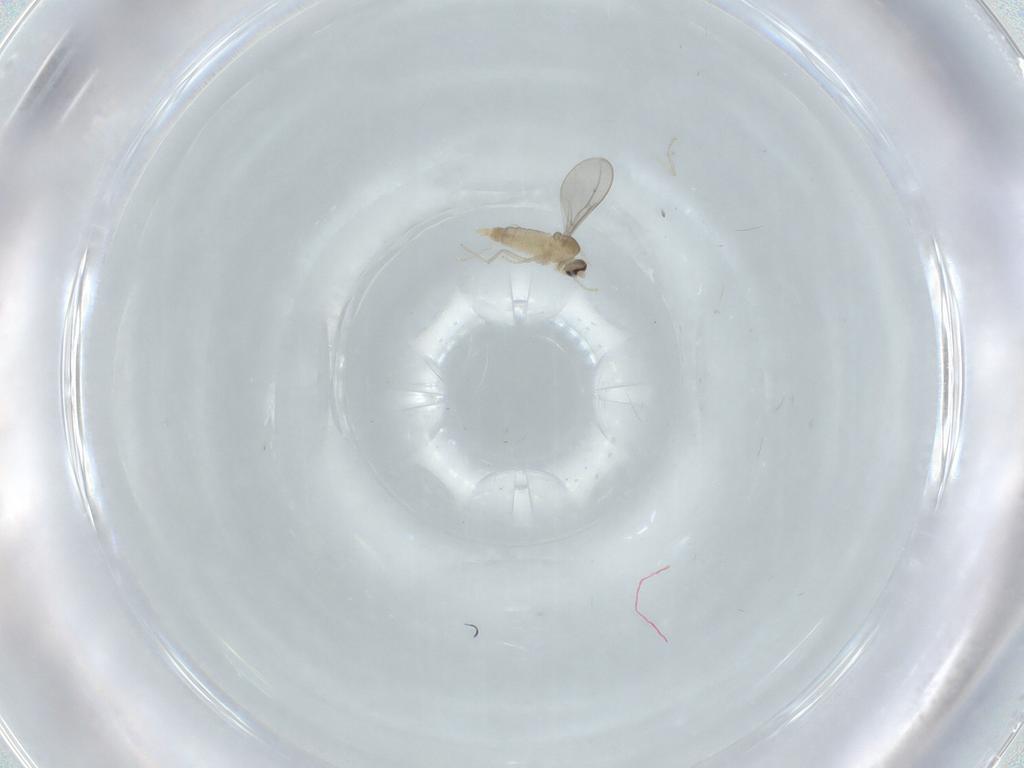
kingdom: Animalia
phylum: Arthropoda
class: Insecta
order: Diptera
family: Cecidomyiidae
